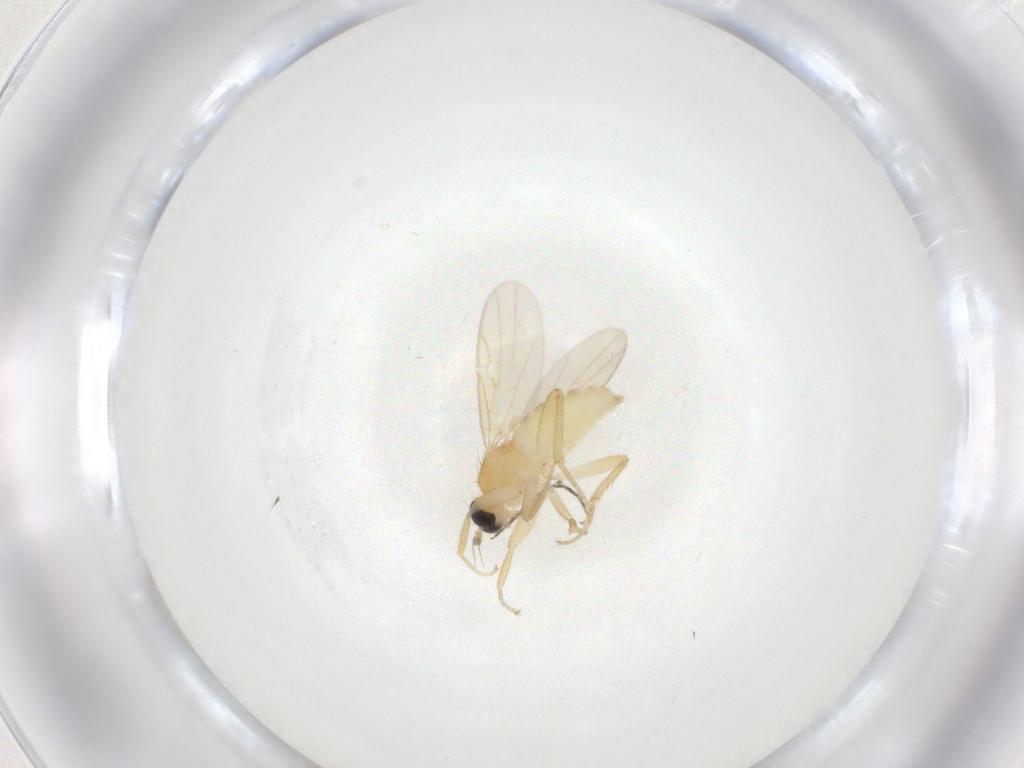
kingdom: Animalia
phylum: Arthropoda
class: Insecta
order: Diptera
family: Hybotidae
